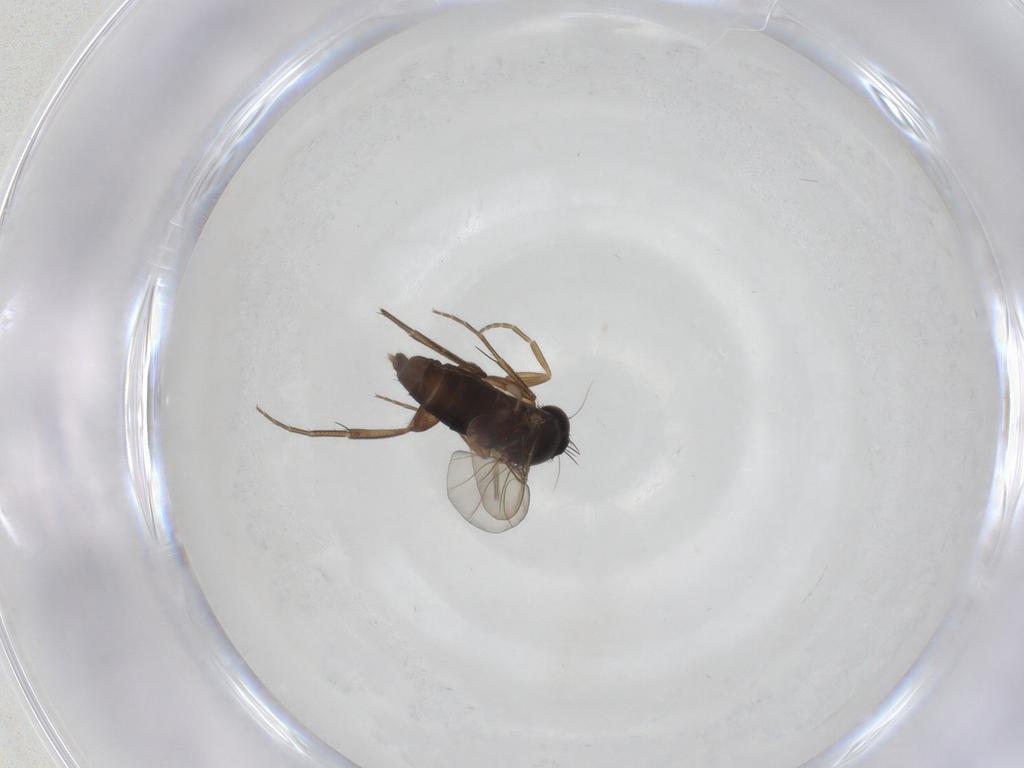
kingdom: Animalia
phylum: Arthropoda
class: Insecta
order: Diptera
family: Phoridae
